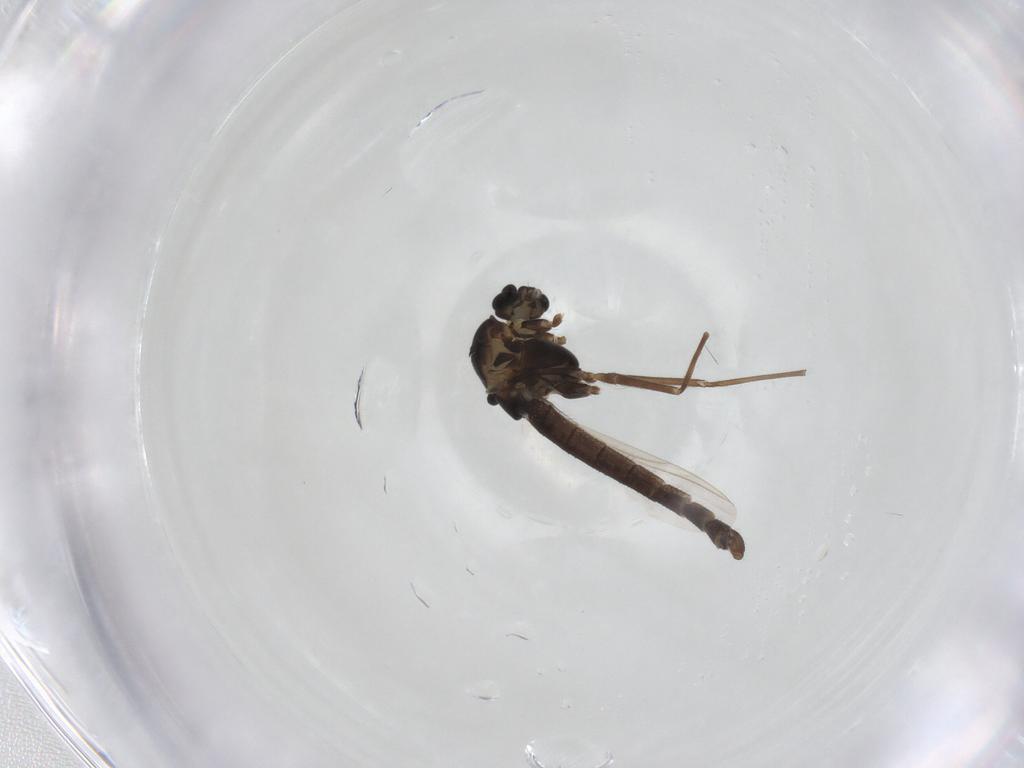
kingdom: Animalia
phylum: Arthropoda
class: Insecta
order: Diptera
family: Chironomidae
